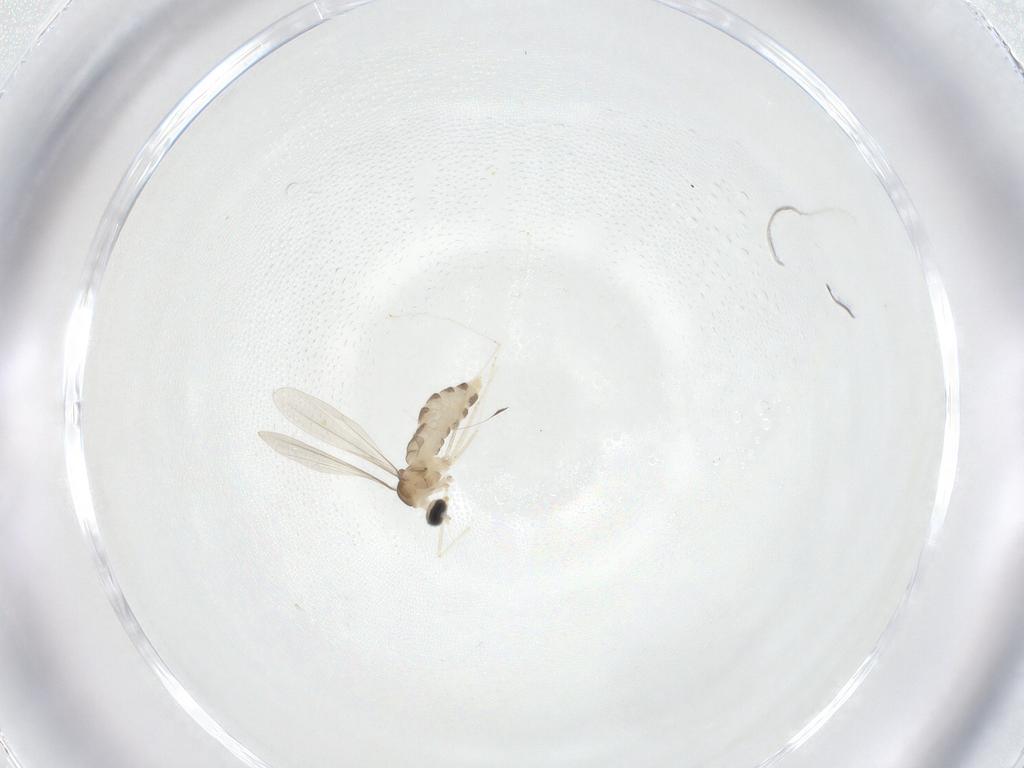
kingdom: Animalia
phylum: Arthropoda
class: Insecta
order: Diptera
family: Cecidomyiidae
